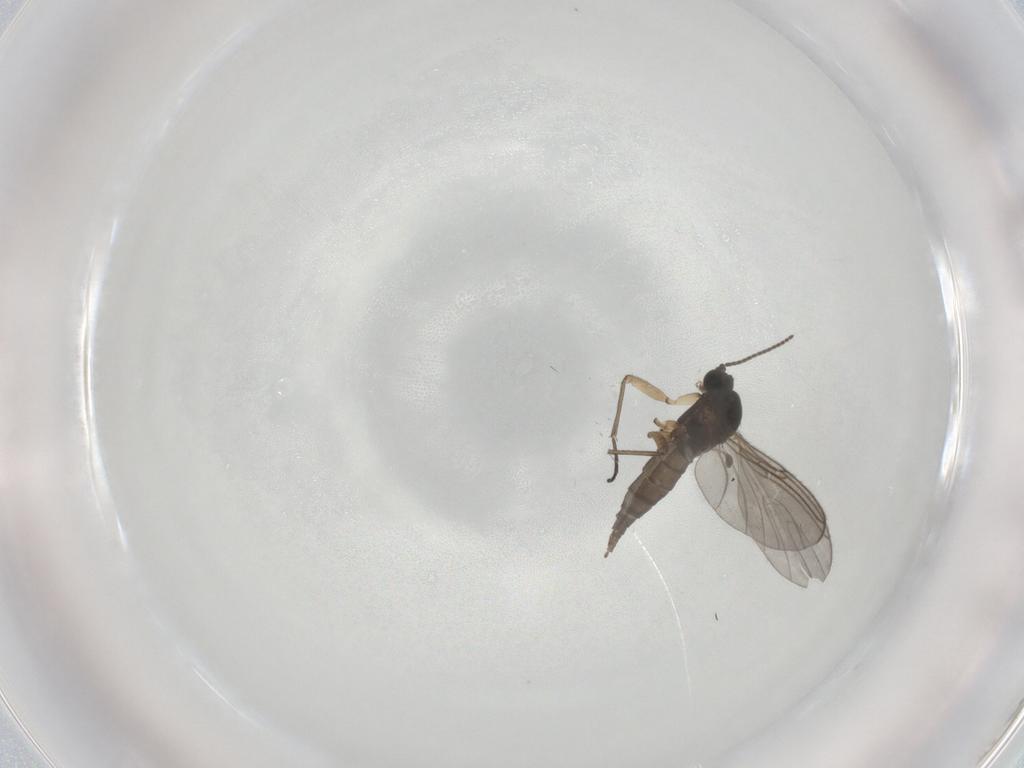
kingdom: Animalia
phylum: Arthropoda
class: Insecta
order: Diptera
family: Sciaridae
